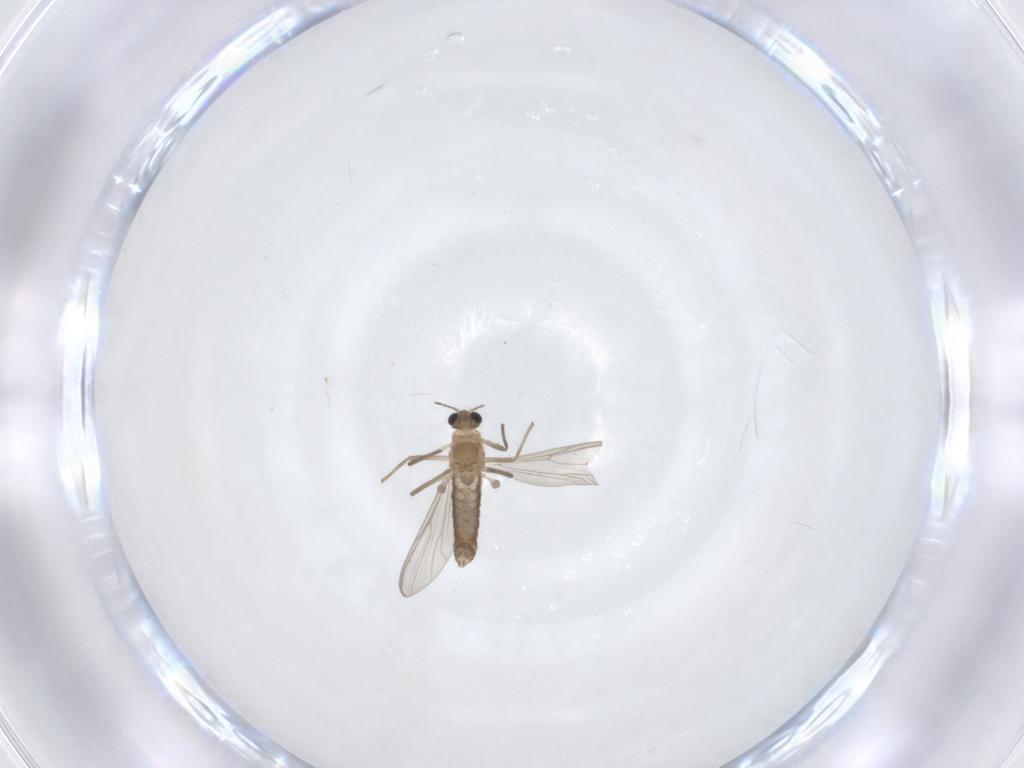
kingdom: Animalia
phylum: Arthropoda
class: Insecta
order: Diptera
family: Chironomidae
